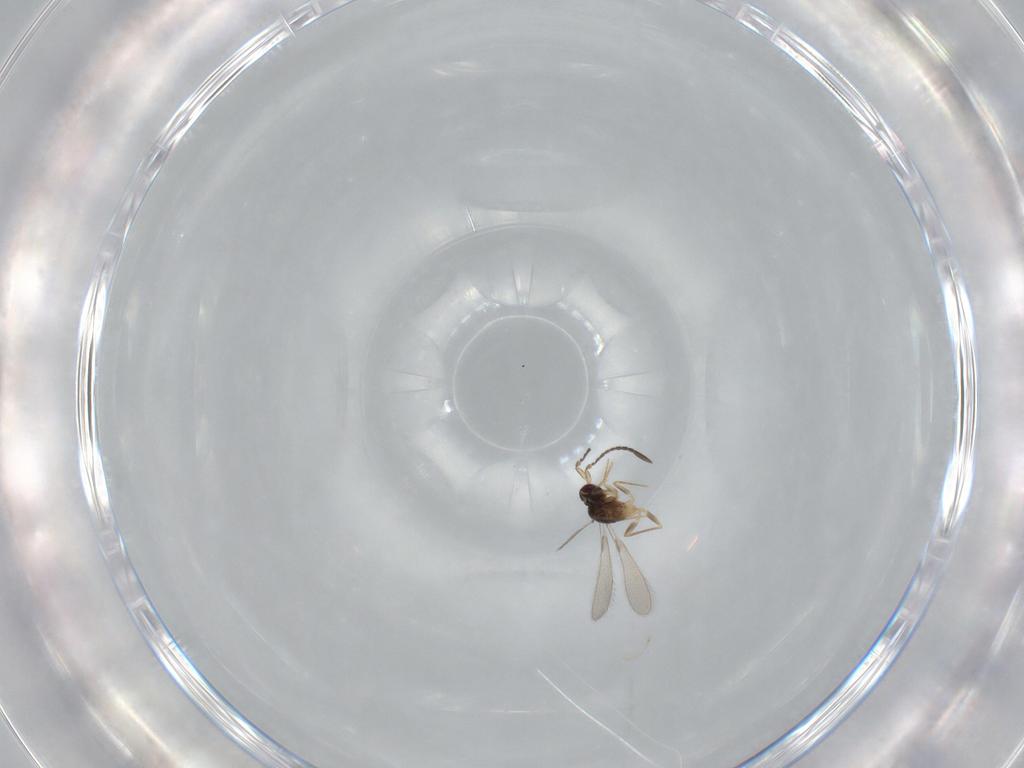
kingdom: Animalia
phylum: Arthropoda
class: Insecta
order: Hymenoptera
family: Mymaridae
